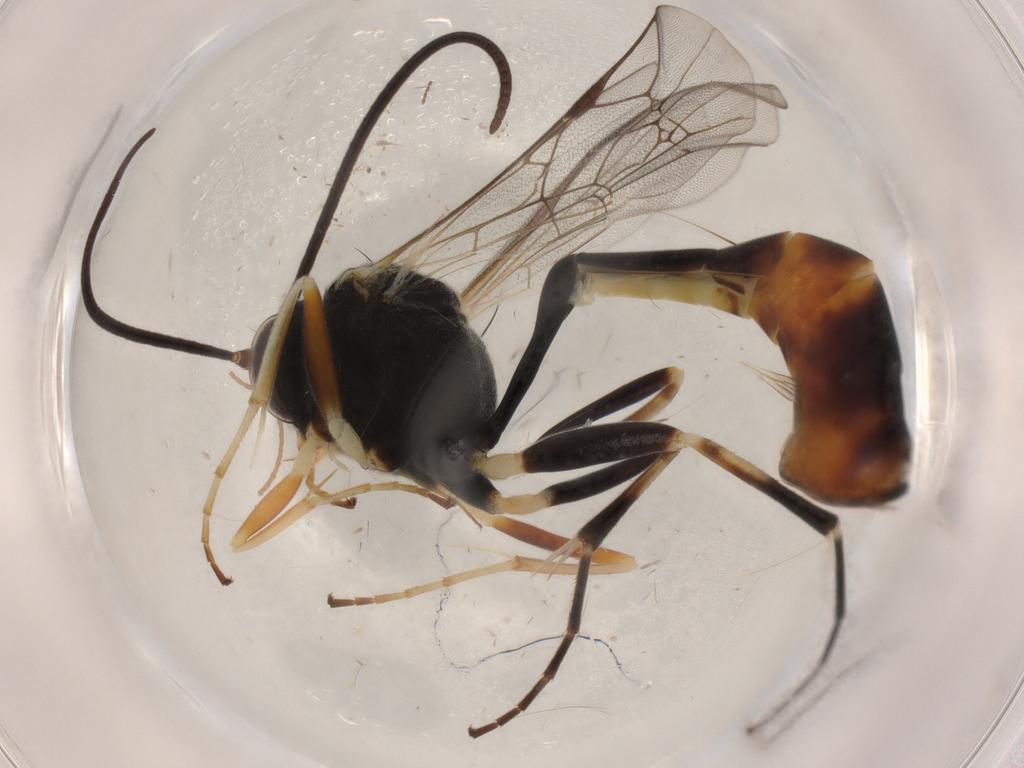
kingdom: Animalia
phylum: Arthropoda
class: Insecta
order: Hymenoptera
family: Ichneumonidae
